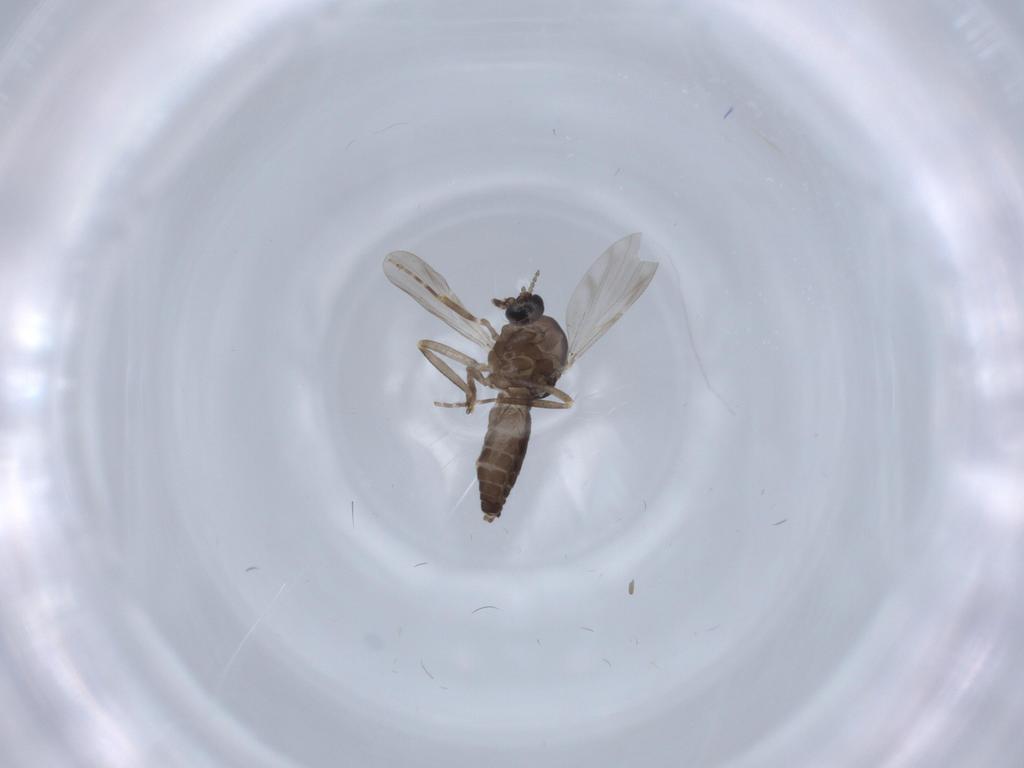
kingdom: Animalia
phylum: Arthropoda
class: Insecta
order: Diptera
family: Ceratopogonidae
